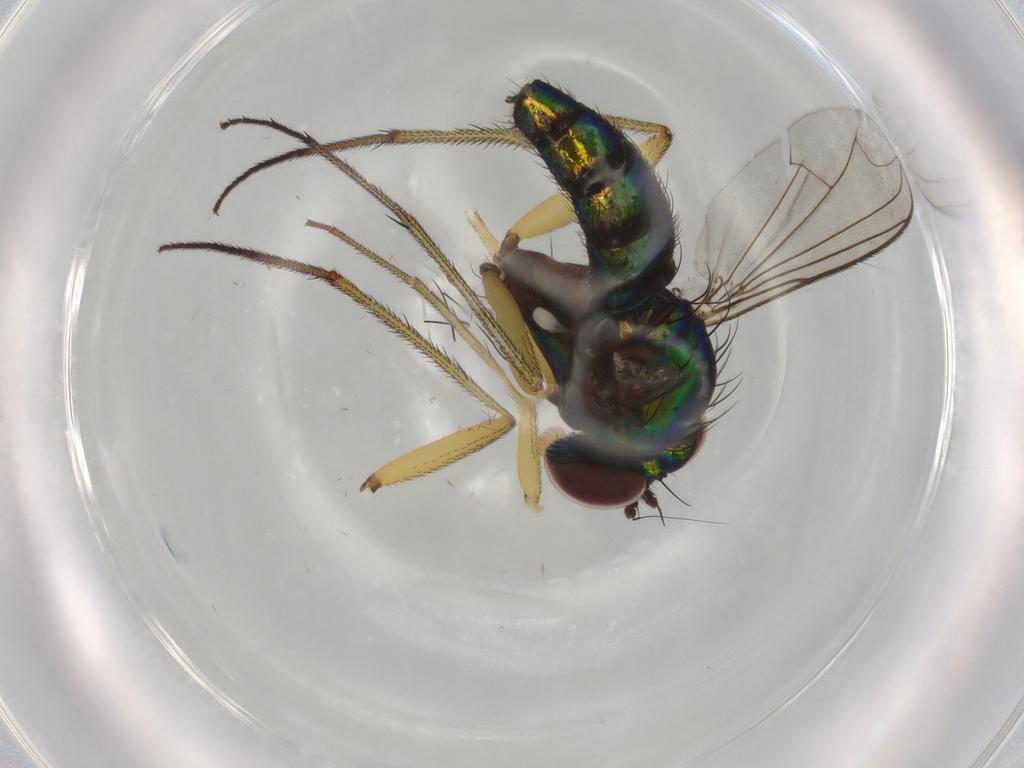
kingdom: Animalia
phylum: Arthropoda
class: Insecta
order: Diptera
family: Dolichopodidae
